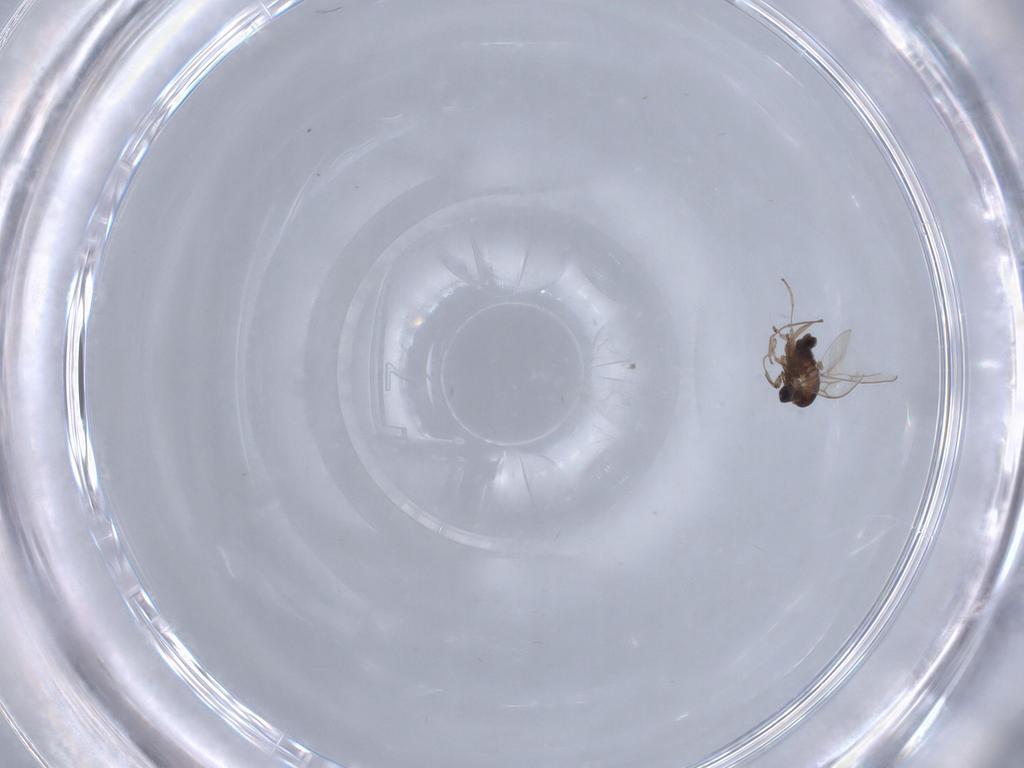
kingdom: Animalia
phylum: Arthropoda
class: Insecta
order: Diptera
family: Cecidomyiidae
